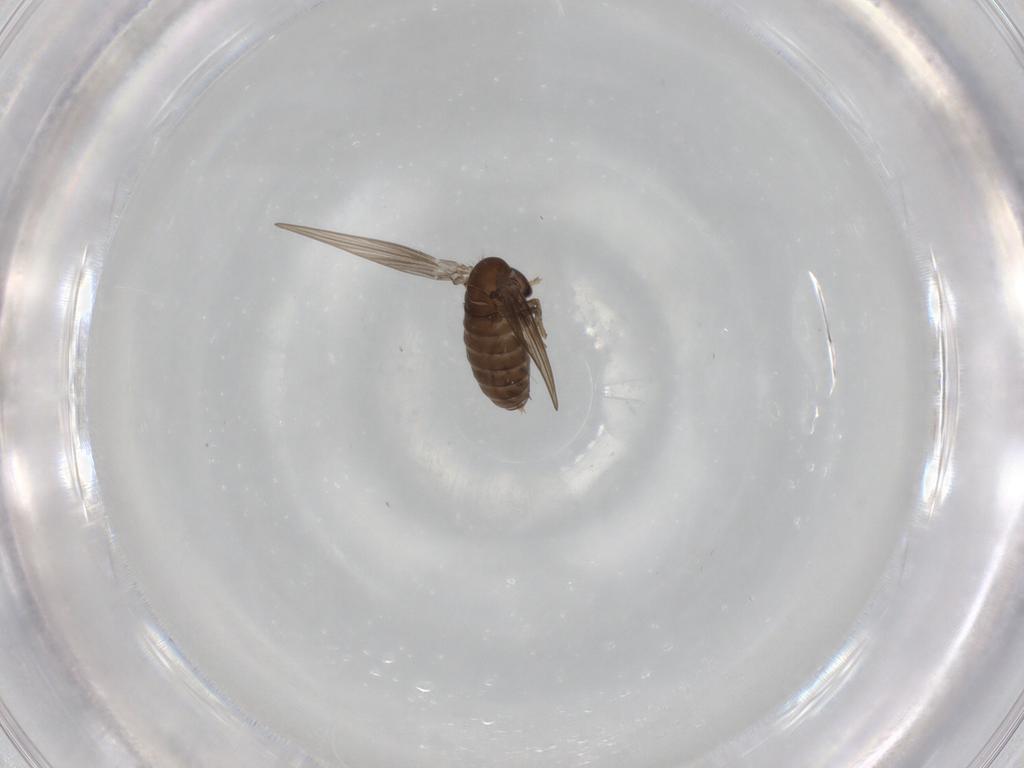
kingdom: Animalia
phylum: Arthropoda
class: Insecta
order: Diptera
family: Psychodidae
